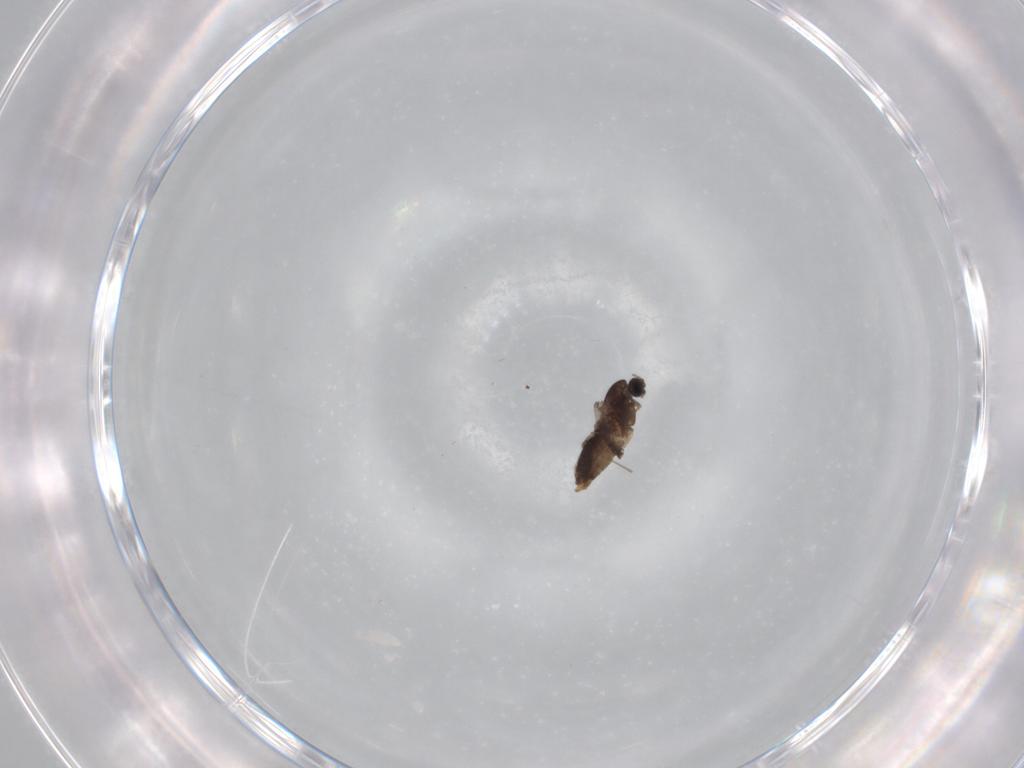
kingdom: Animalia
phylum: Arthropoda
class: Insecta
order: Diptera
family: Chironomidae
